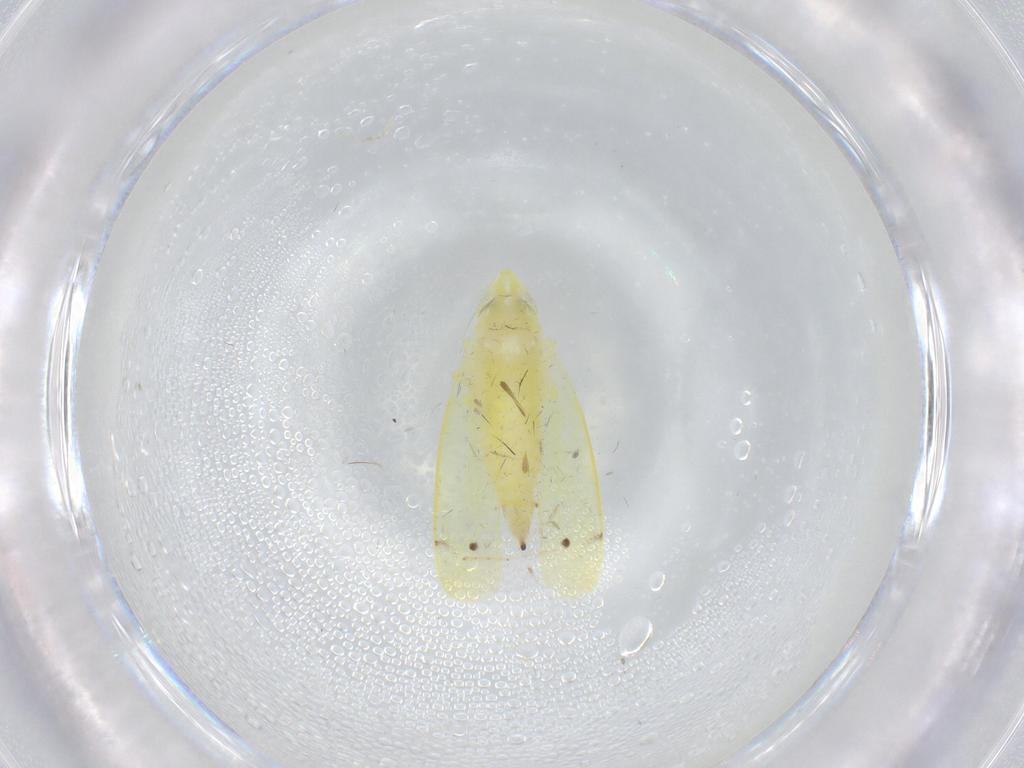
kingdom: Animalia
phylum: Arthropoda
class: Insecta
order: Hemiptera
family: Cicadellidae
